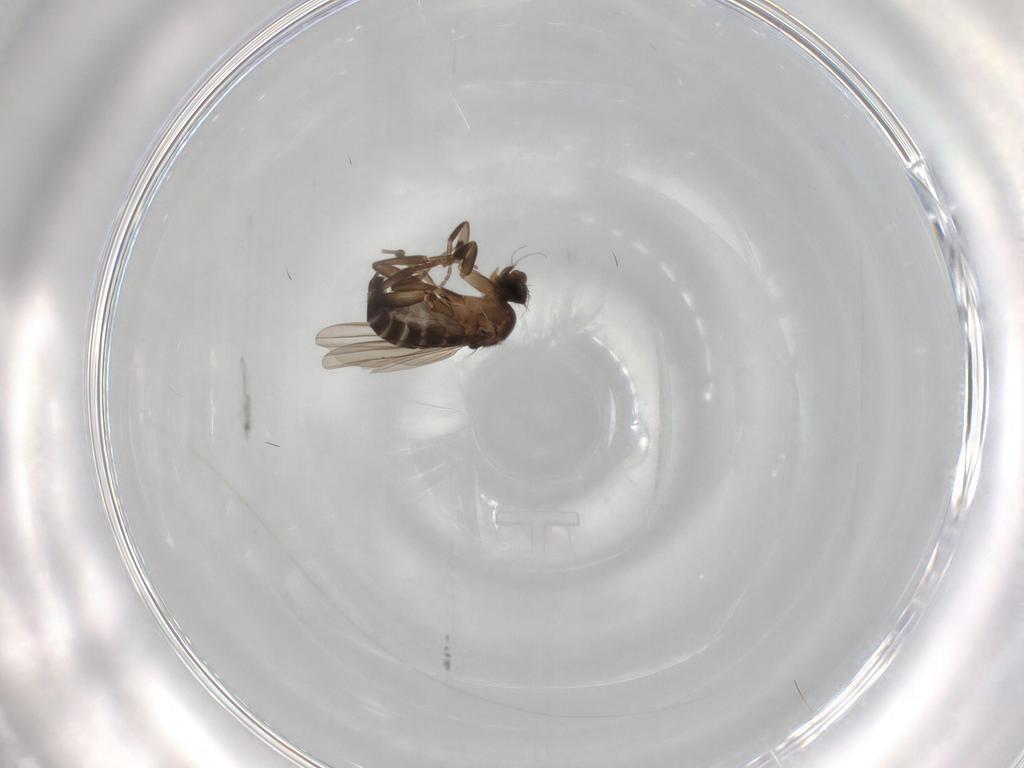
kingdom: Animalia
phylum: Arthropoda
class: Insecta
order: Diptera
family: Phoridae
